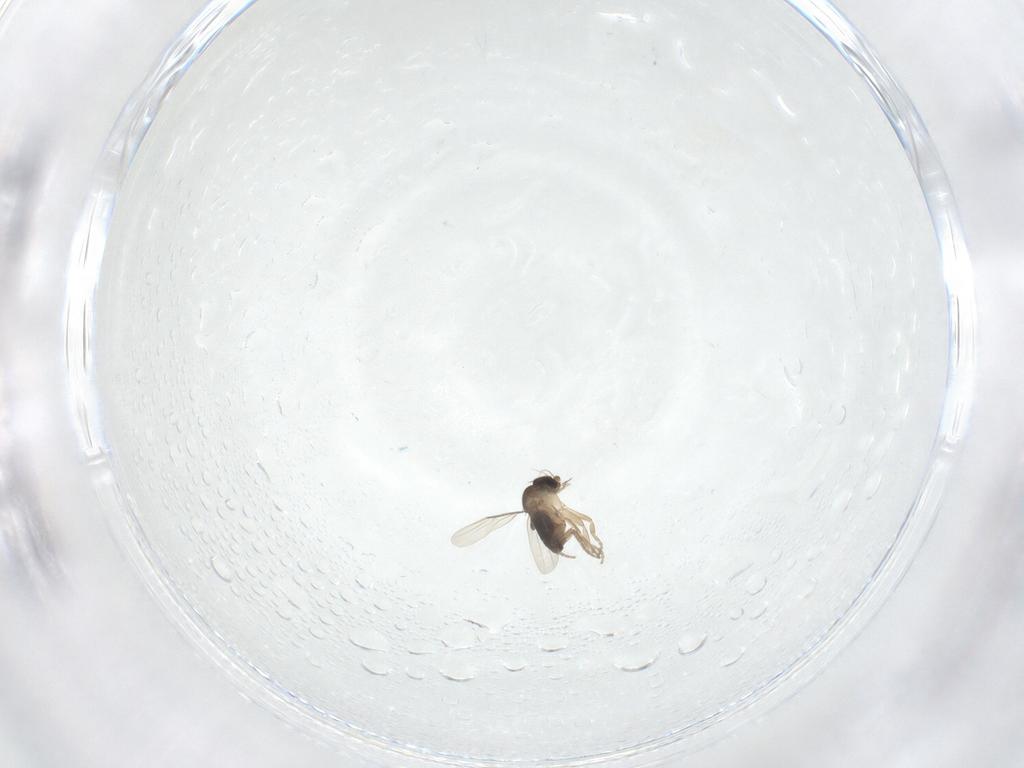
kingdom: Animalia
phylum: Arthropoda
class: Insecta
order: Diptera
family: Phoridae
